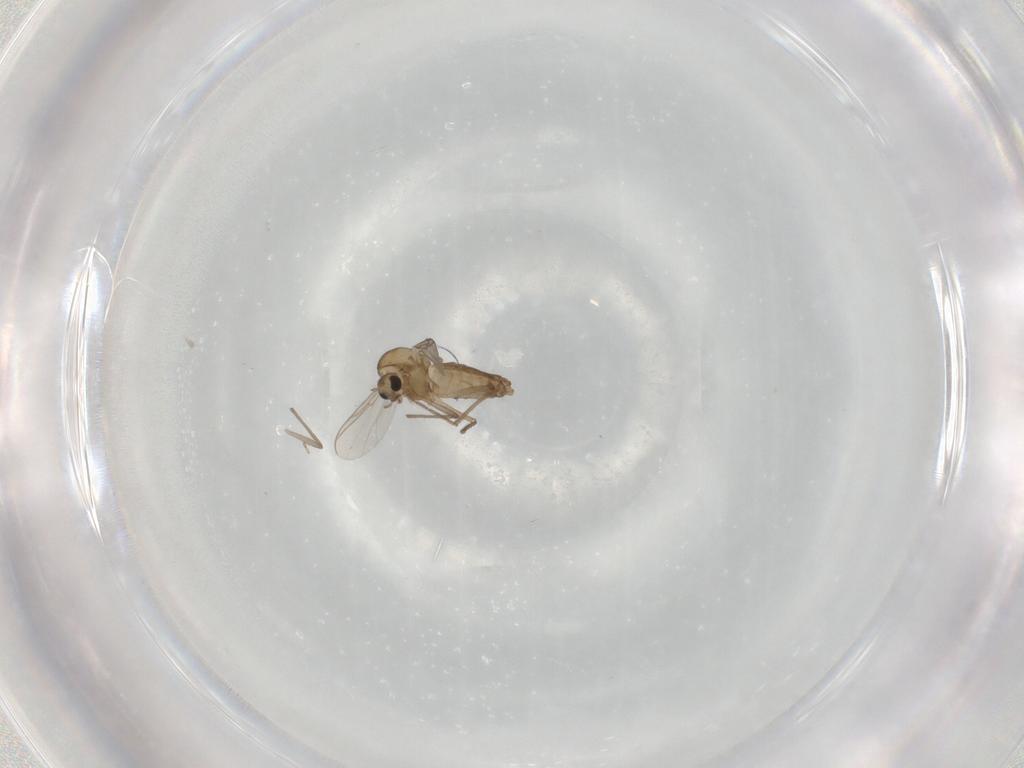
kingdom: Animalia
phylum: Arthropoda
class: Insecta
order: Diptera
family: Chironomidae
